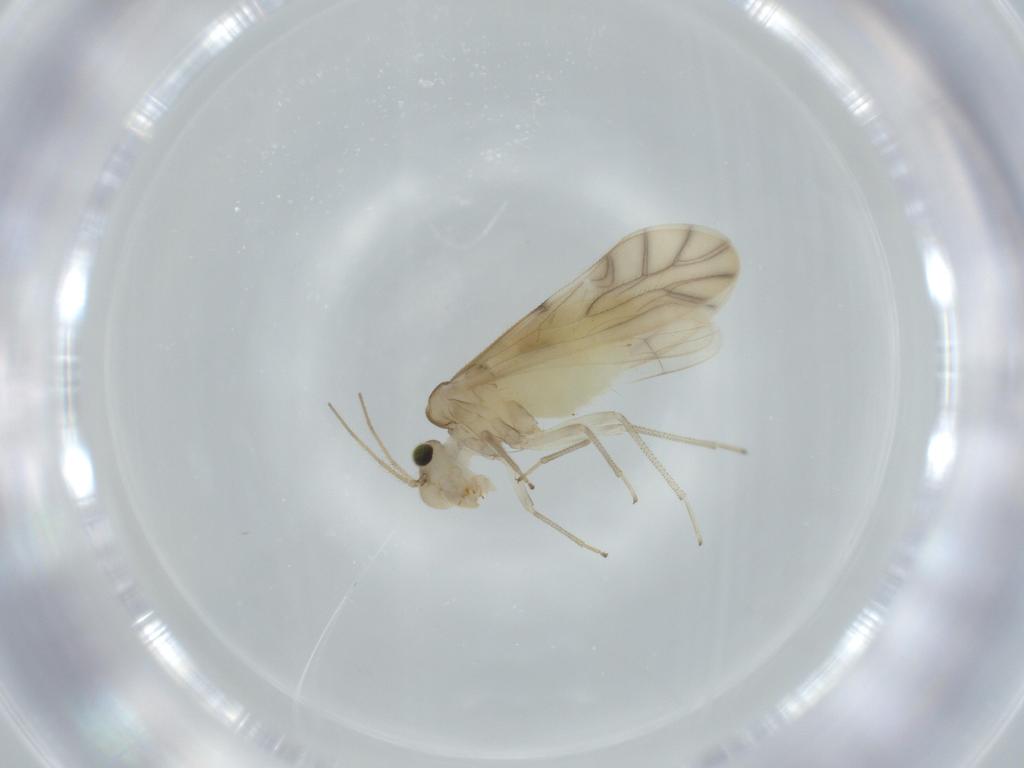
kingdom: Animalia
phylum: Arthropoda
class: Insecta
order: Psocodea
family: Caeciliusidae
